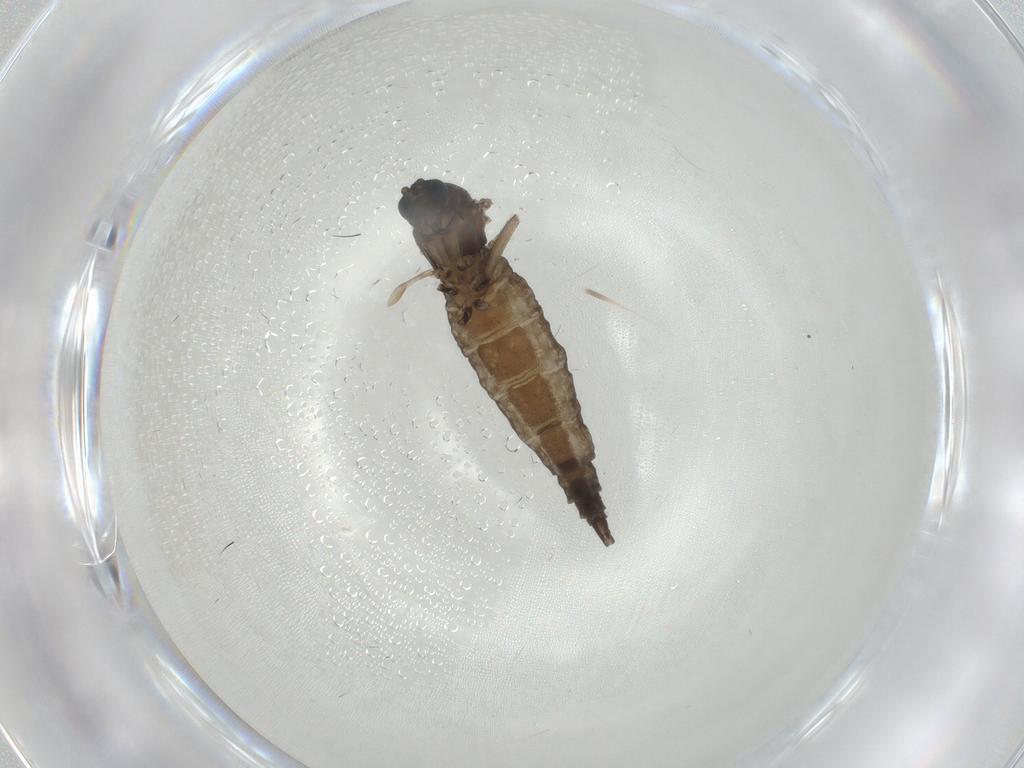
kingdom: Animalia
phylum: Arthropoda
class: Insecta
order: Diptera
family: Sciaridae
